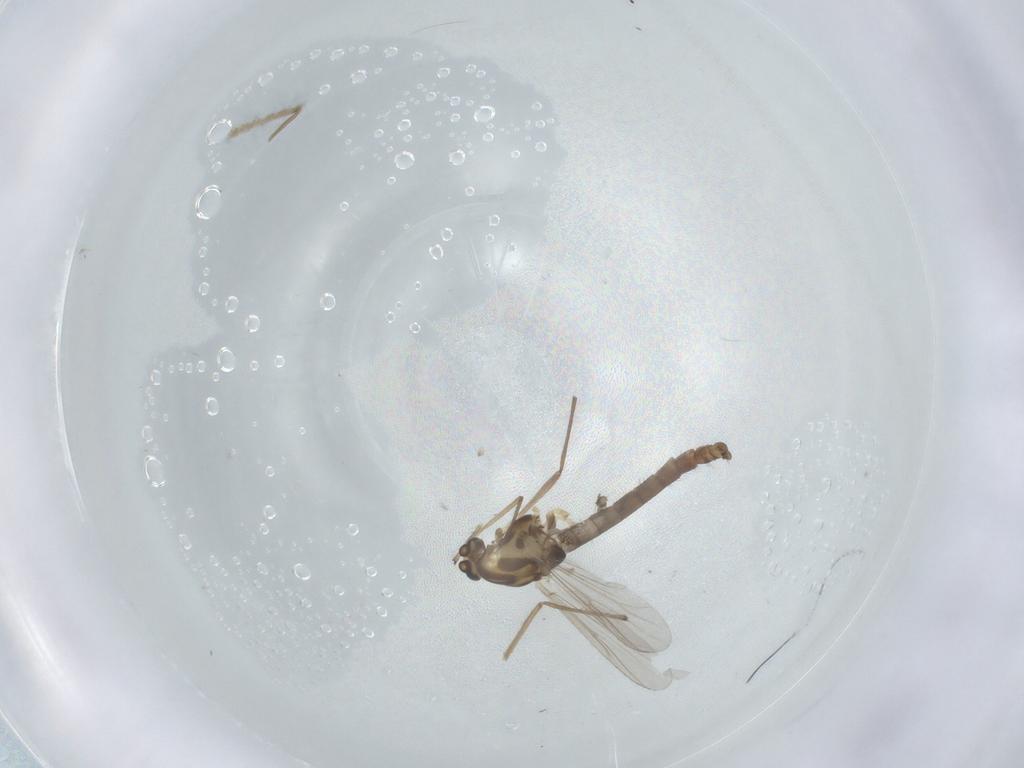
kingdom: Animalia
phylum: Arthropoda
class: Insecta
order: Diptera
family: Chironomidae
